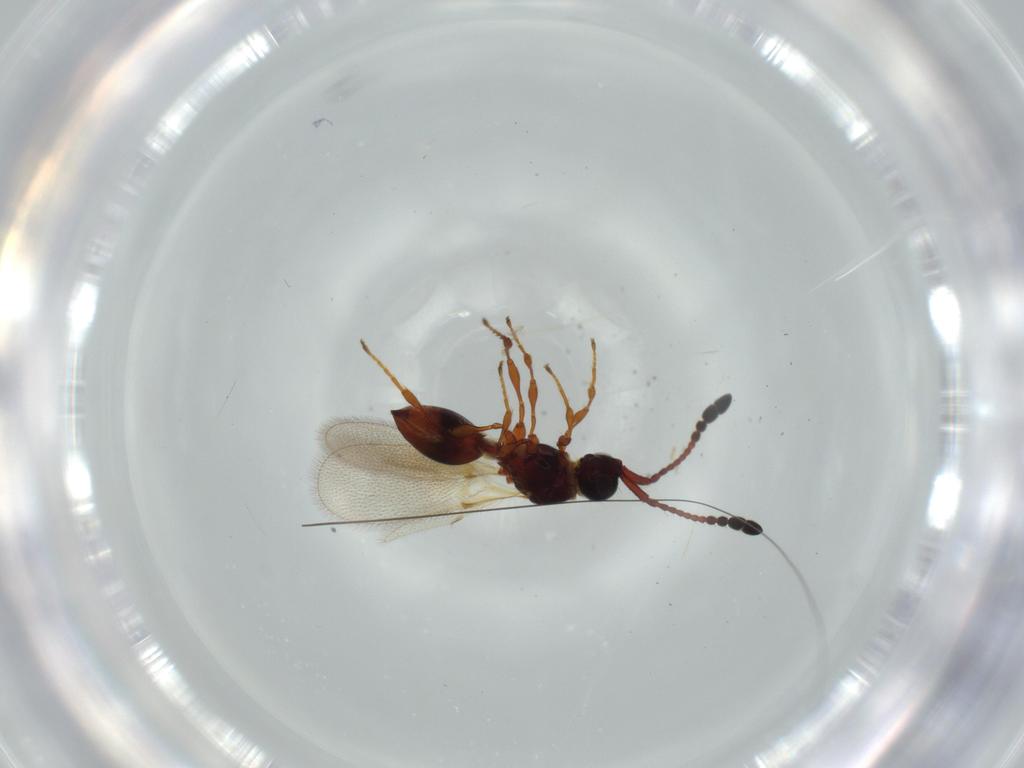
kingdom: Animalia
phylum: Arthropoda
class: Insecta
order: Hymenoptera
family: Diapriidae
